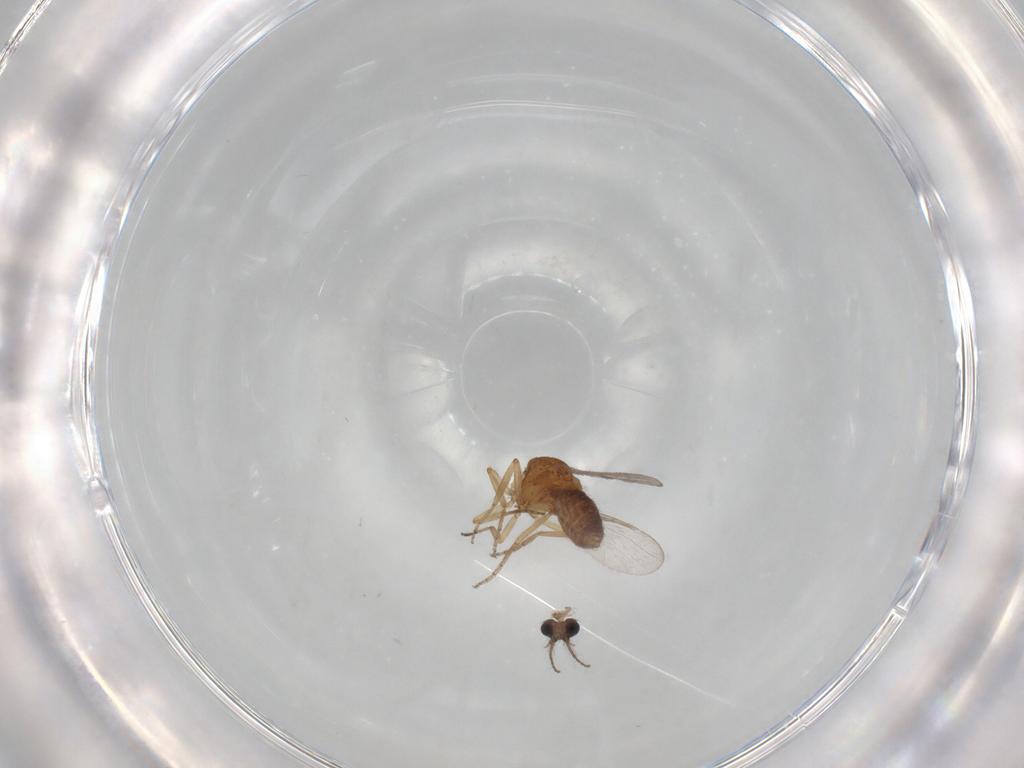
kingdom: Animalia
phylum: Arthropoda
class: Insecta
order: Diptera
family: Ceratopogonidae
